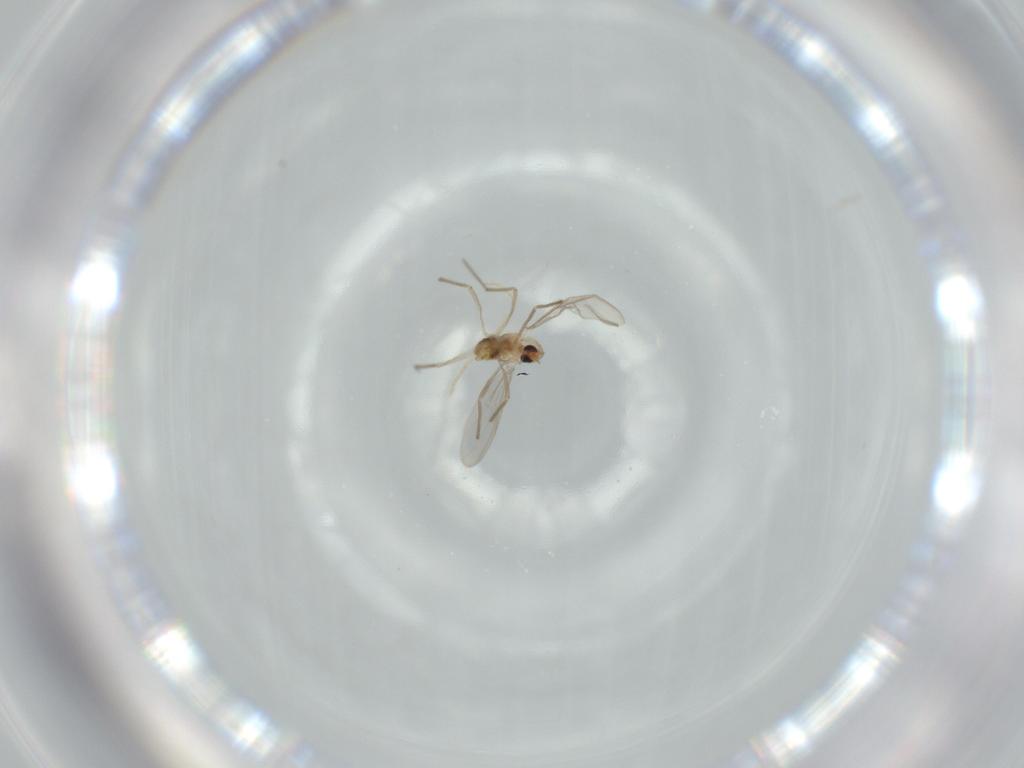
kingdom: Animalia
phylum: Arthropoda
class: Insecta
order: Diptera
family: Chironomidae
